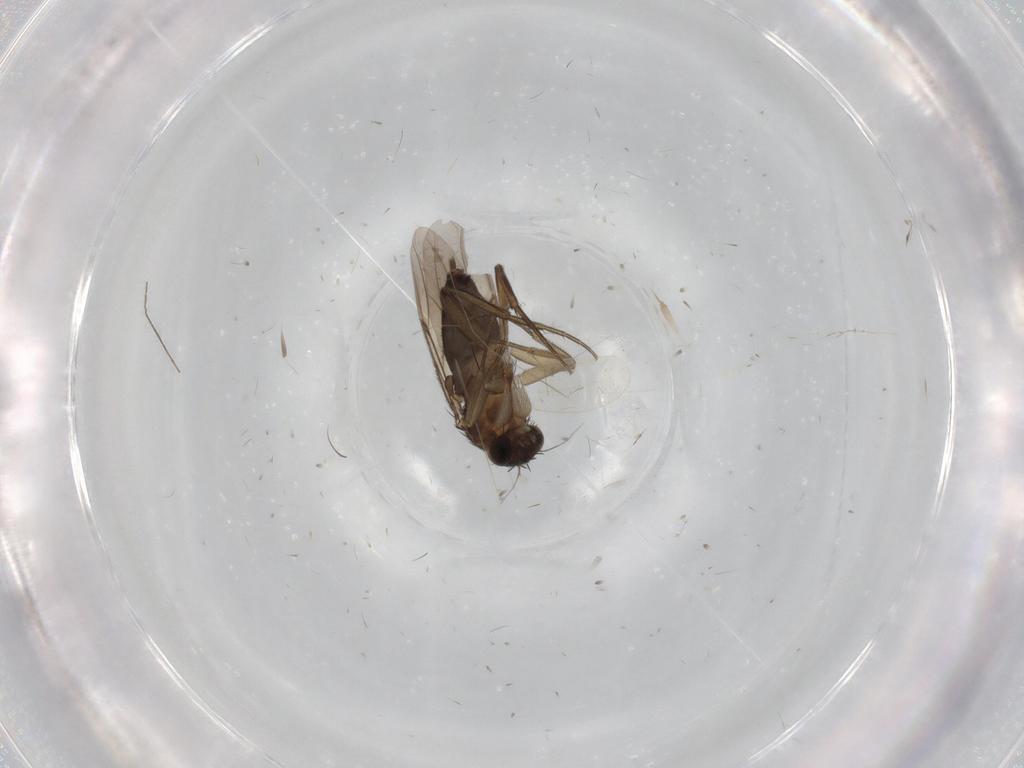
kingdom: Animalia
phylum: Arthropoda
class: Insecta
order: Diptera
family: Phoridae
